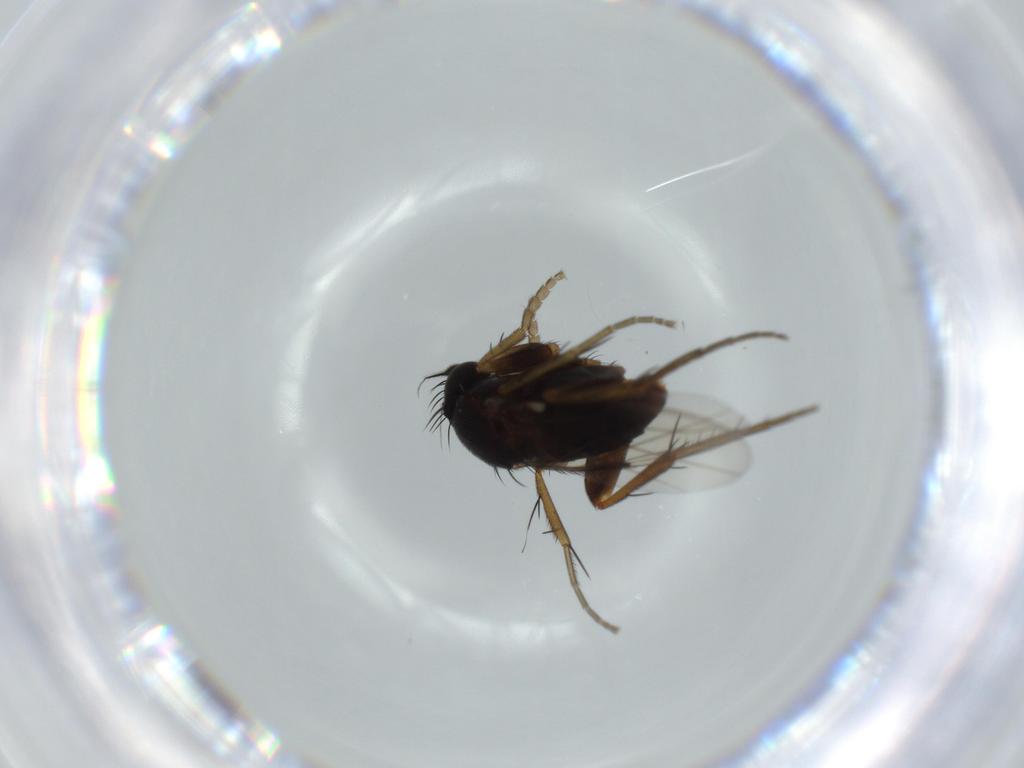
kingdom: Animalia
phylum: Arthropoda
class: Insecta
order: Diptera
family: Phoridae
